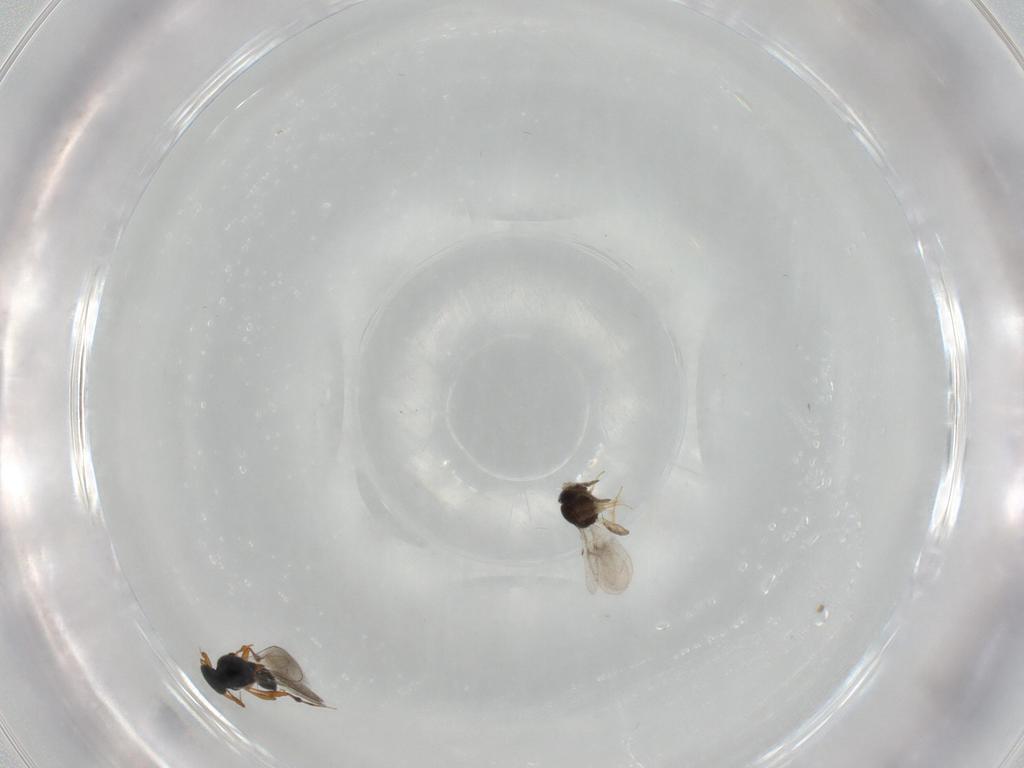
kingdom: Animalia
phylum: Arthropoda
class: Insecta
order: Hymenoptera
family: Scelionidae
